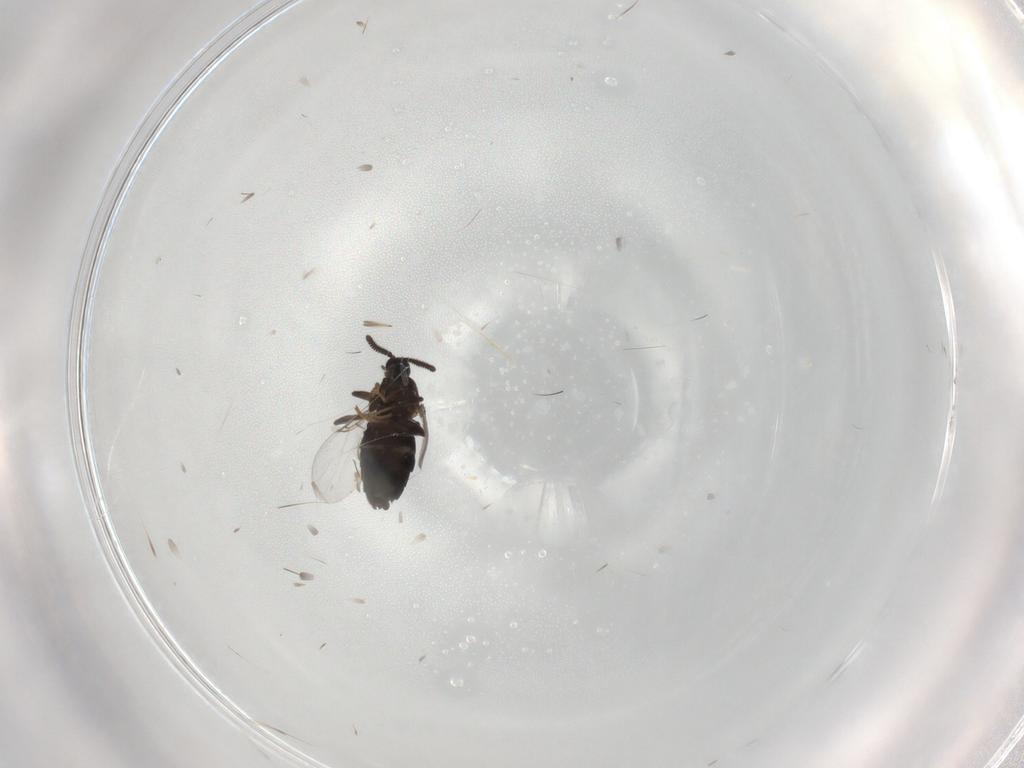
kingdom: Animalia
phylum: Arthropoda
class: Insecta
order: Diptera
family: Scatopsidae
